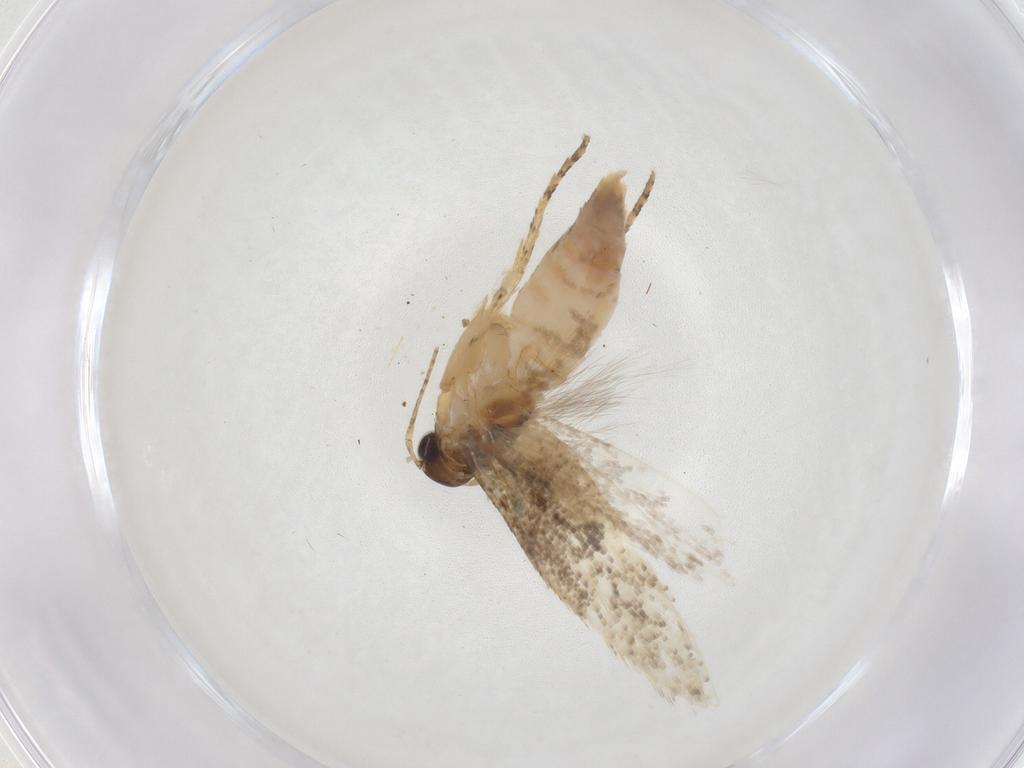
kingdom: Animalia
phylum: Arthropoda
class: Insecta
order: Lepidoptera
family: Gelechiidae
